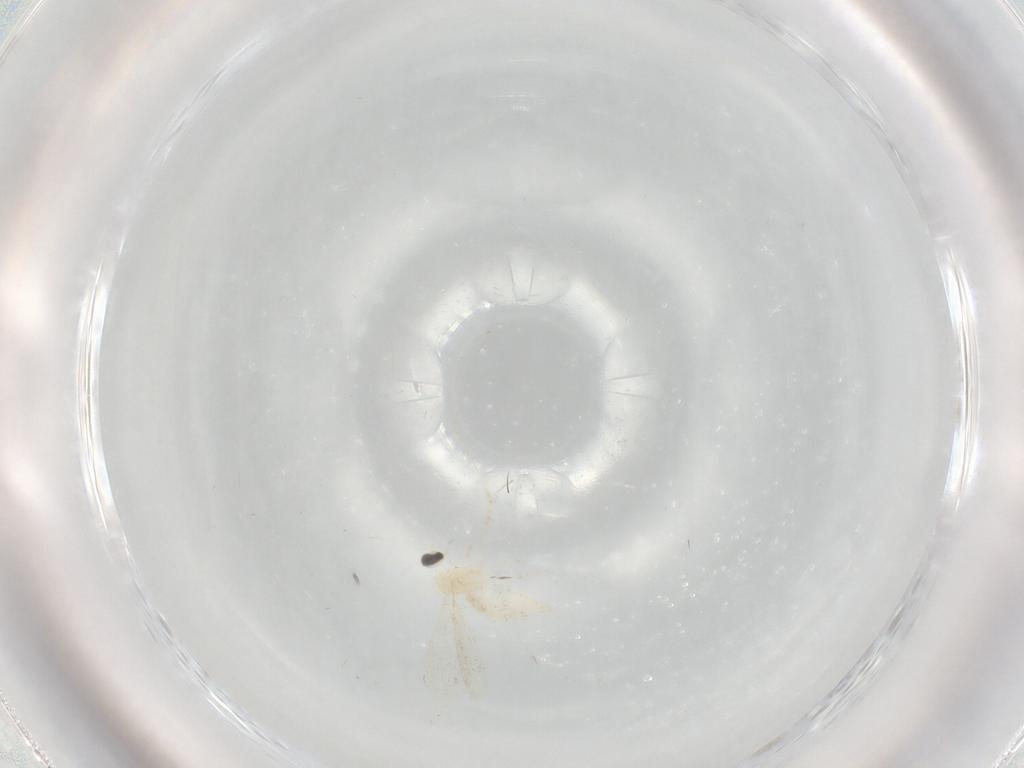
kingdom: Animalia
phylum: Arthropoda
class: Insecta
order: Diptera
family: Cecidomyiidae
